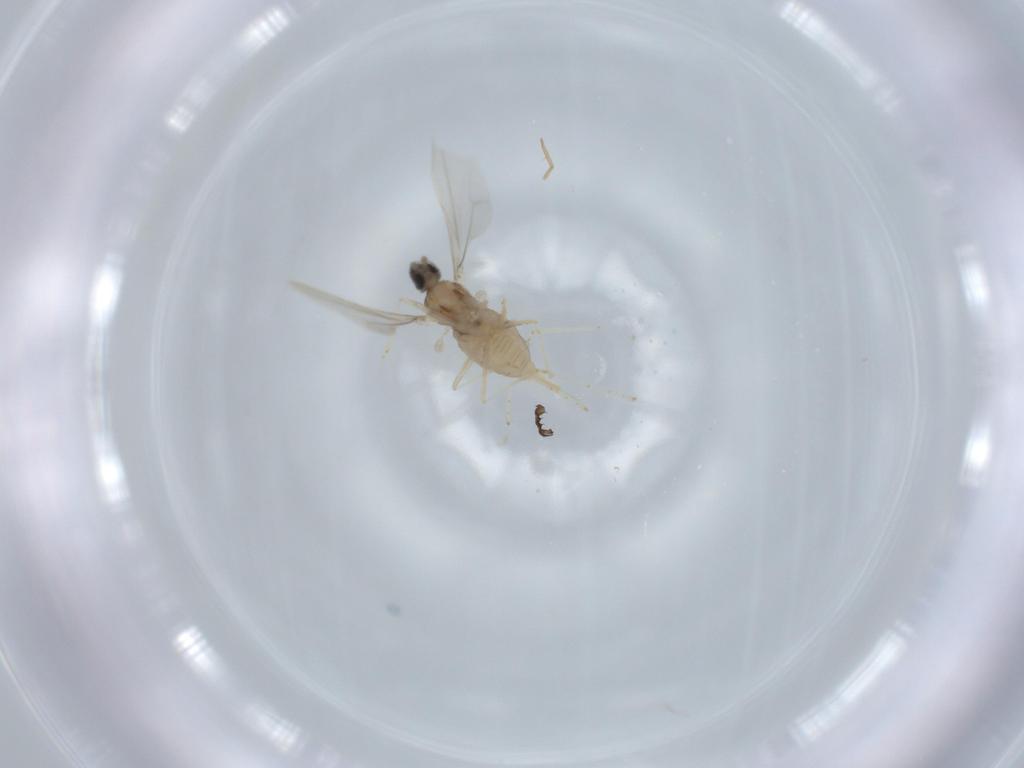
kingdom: Animalia
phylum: Arthropoda
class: Insecta
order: Diptera
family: Cecidomyiidae
